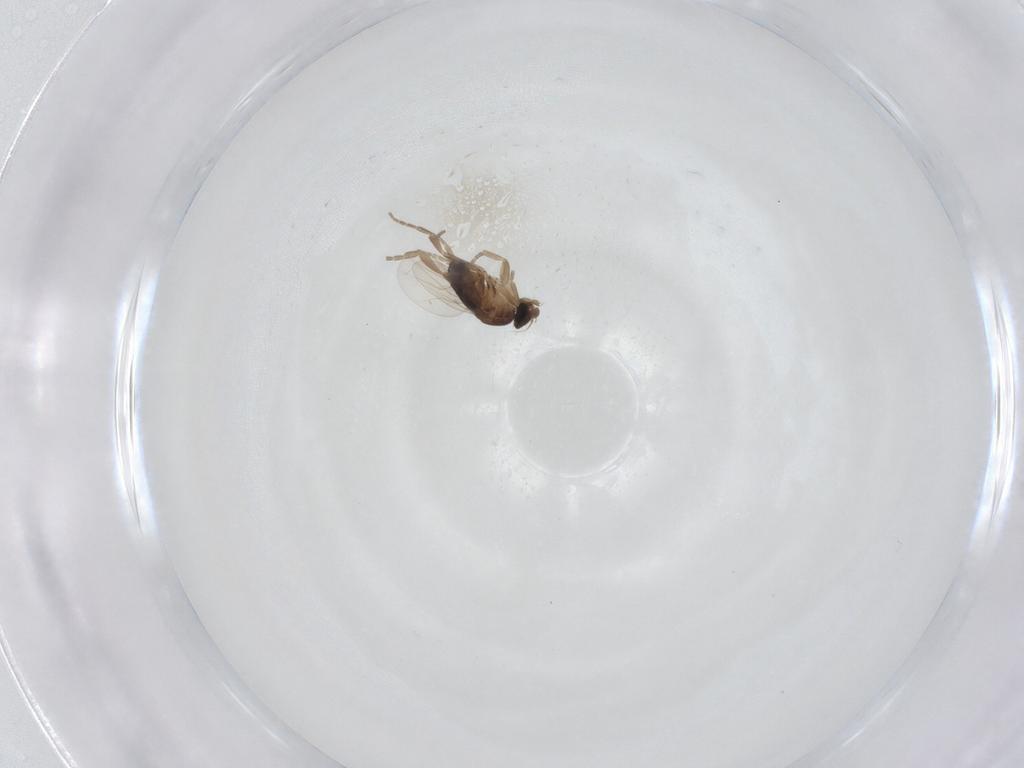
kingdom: Animalia
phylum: Arthropoda
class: Insecta
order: Diptera
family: Phoridae
